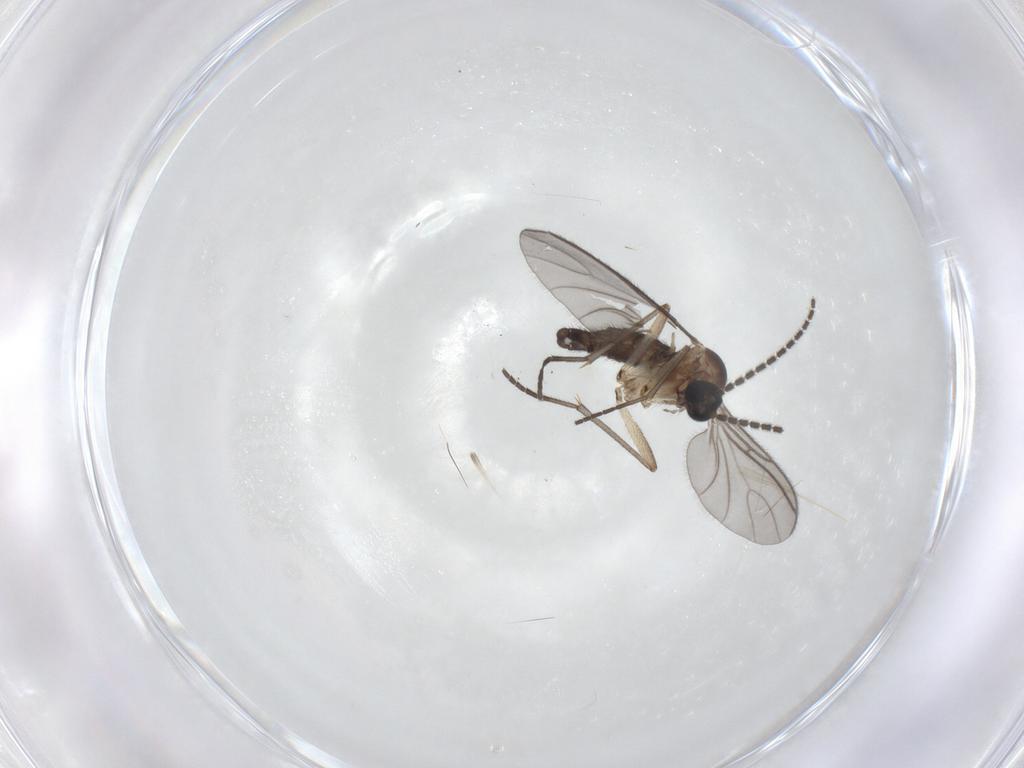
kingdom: Animalia
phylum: Arthropoda
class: Insecta
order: Diptera
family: Sciaridae
